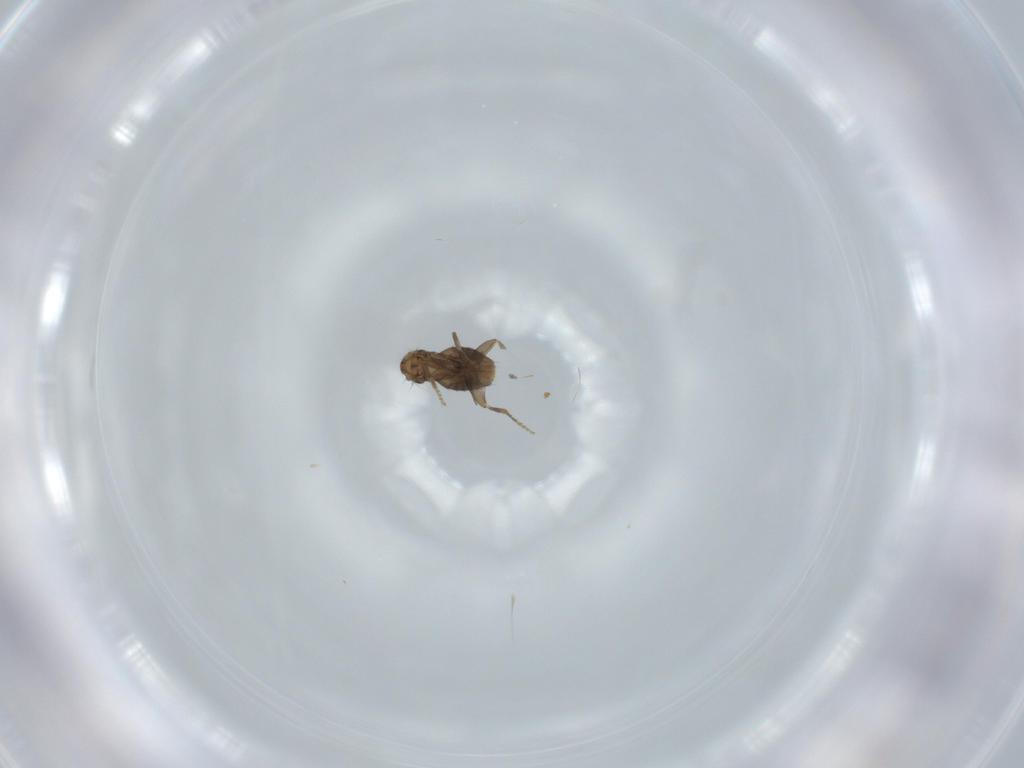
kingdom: Animalia
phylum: Arthropoda
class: Insecta
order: Diptera
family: Phoridae
